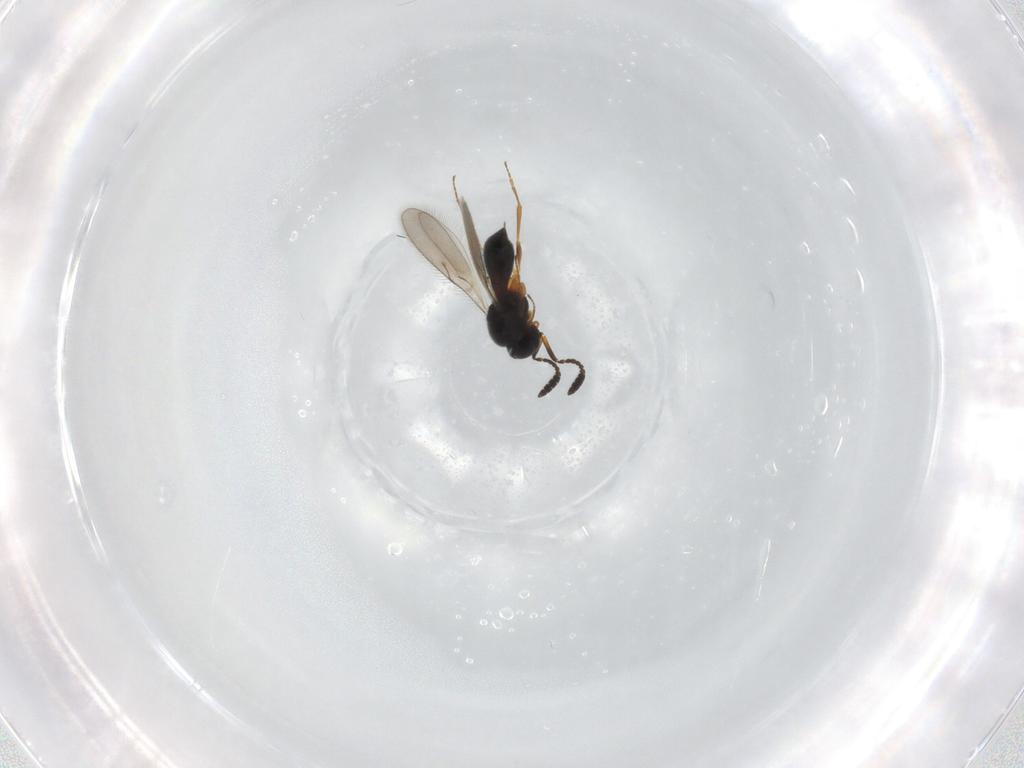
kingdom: Animalia
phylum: Arthropoda
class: Insecta
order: Hymenoptera
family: Scelionidae
